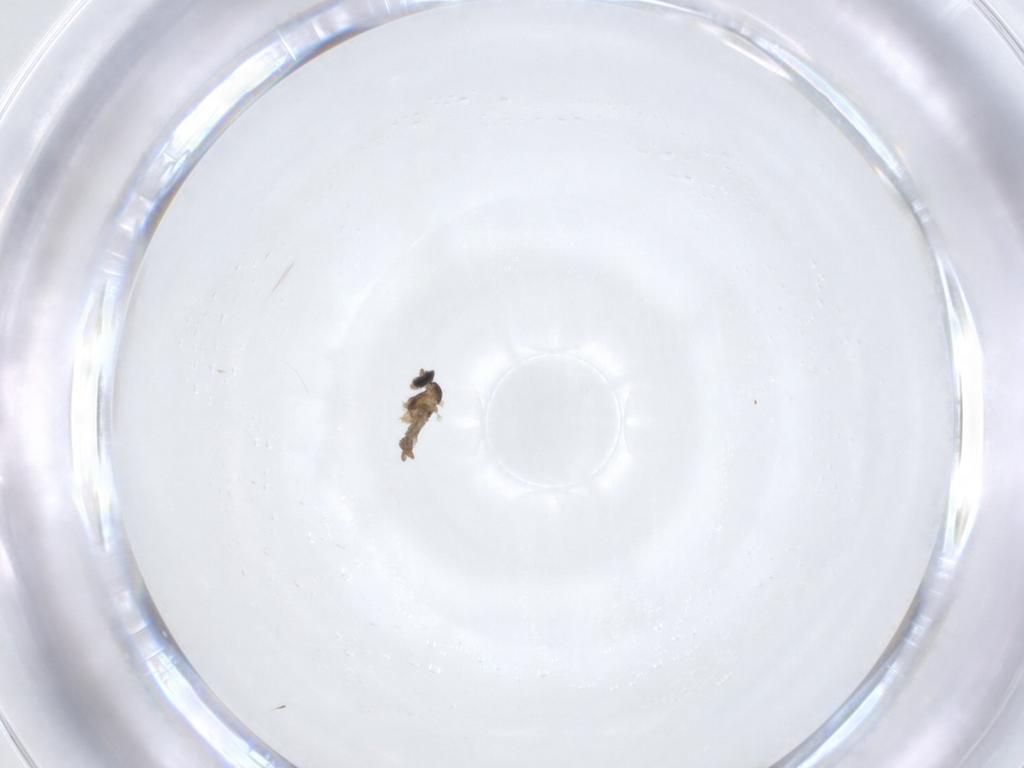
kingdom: Animalia
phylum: Arthropoda
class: Insecta
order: Diptera
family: Cecidomyiidae
